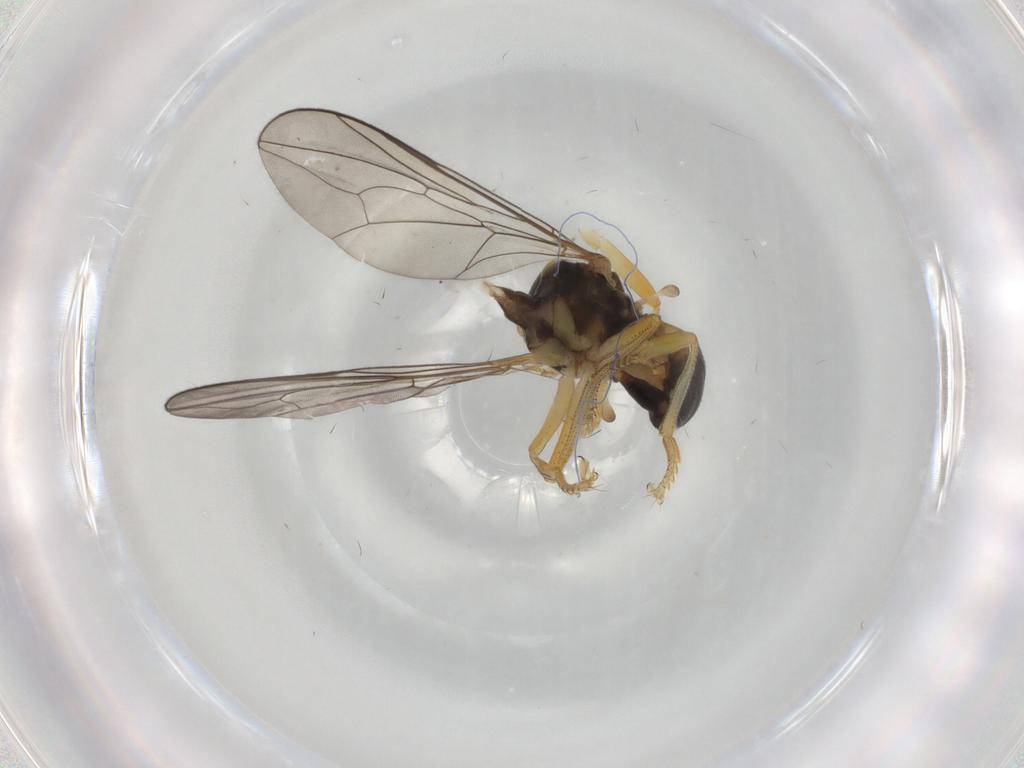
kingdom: Animalia
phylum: Arthropoda
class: Insecta
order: Diptera
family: Pipunculidae
